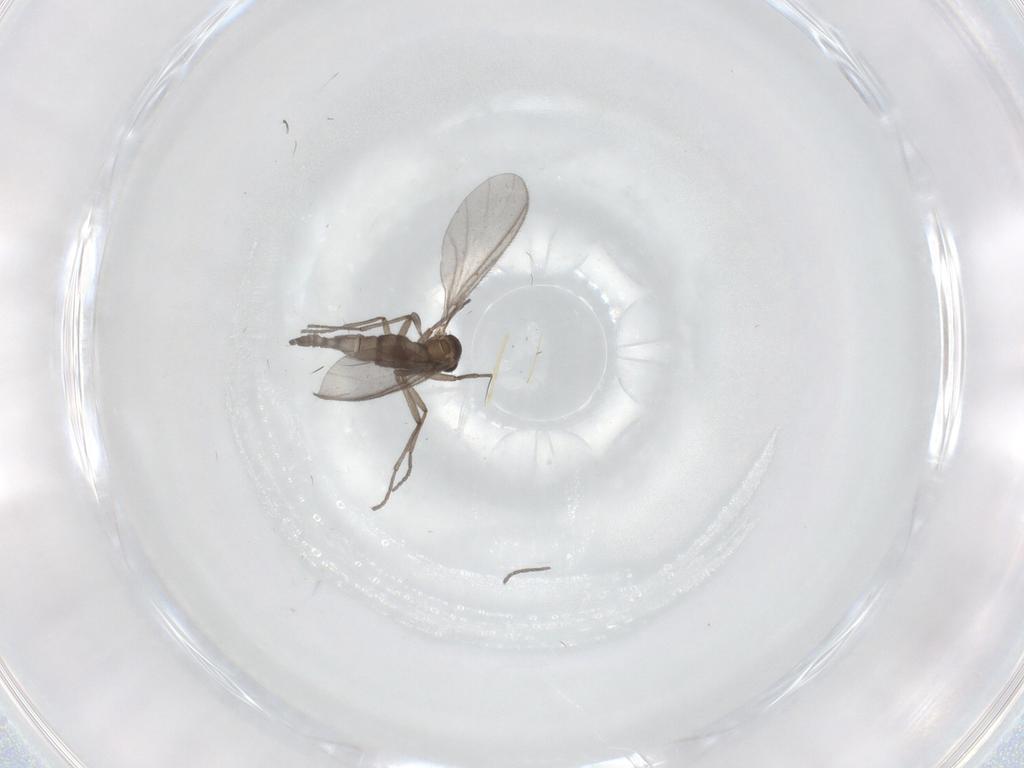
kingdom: Animalia
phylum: Arthropoda
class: Insecta
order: Diptera
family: Sciaridae
